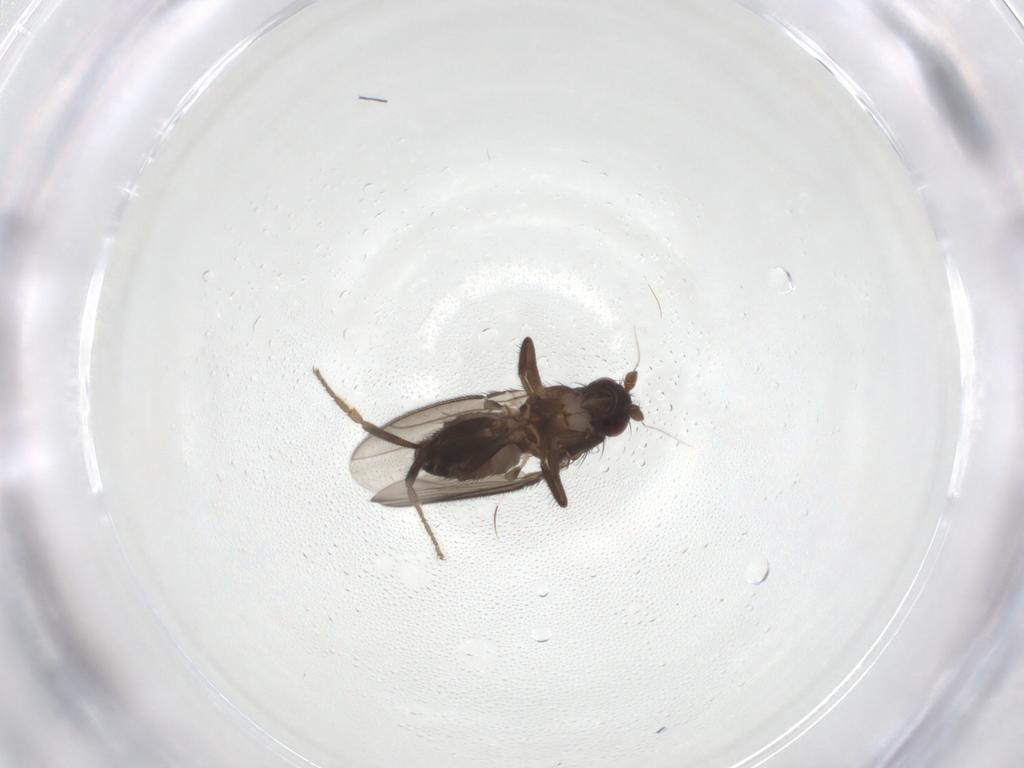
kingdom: Animalia
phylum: Arthropoda
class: Insecta
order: Diptera
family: Sphaeroceridae
